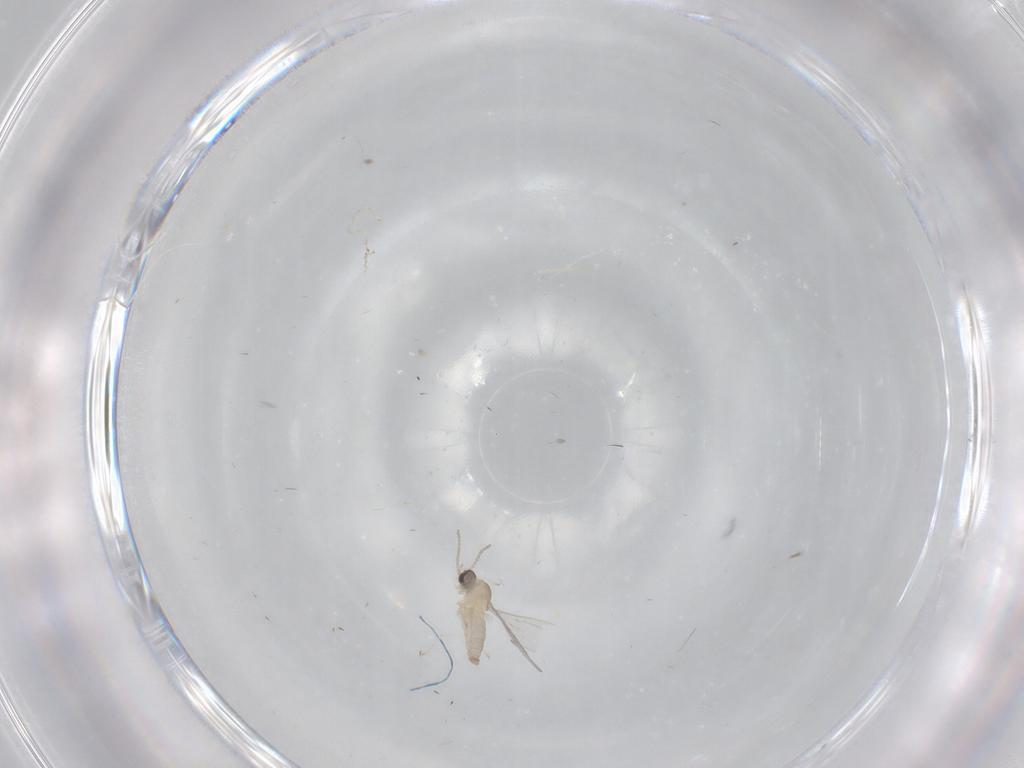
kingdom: Animalia
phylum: Arthropoda
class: Insecta
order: Diptera
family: Cecidomyiidae
